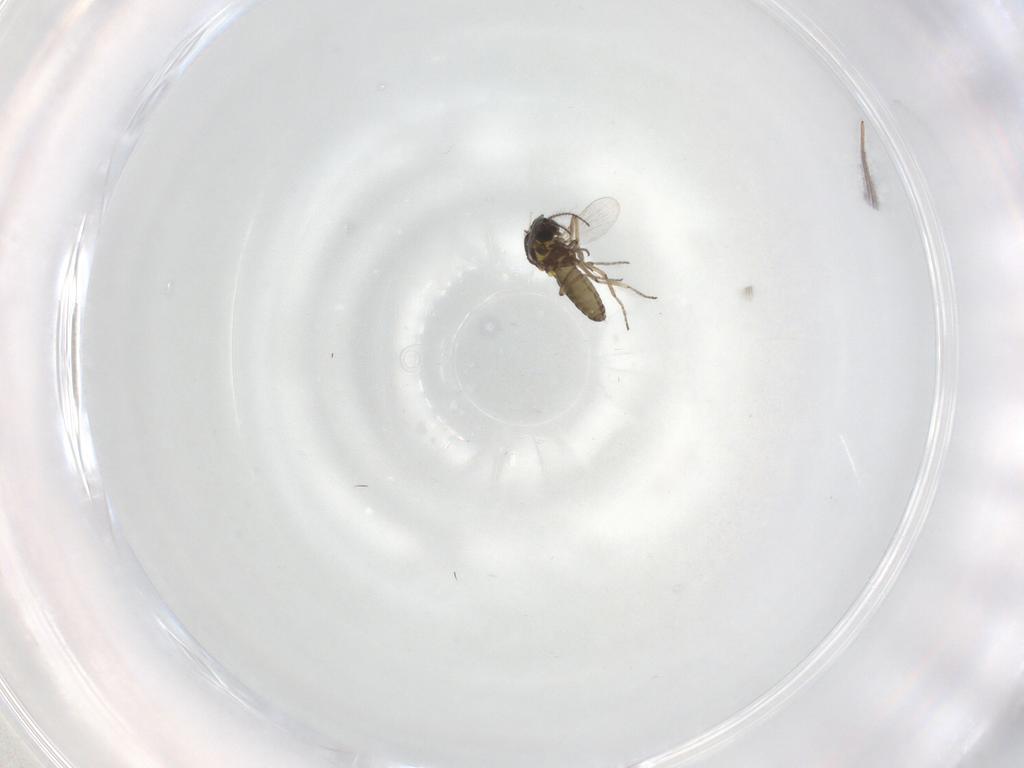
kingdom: Animalia
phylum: Arthropoda
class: Insecta
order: Diptera
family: Ceratopogonidae
